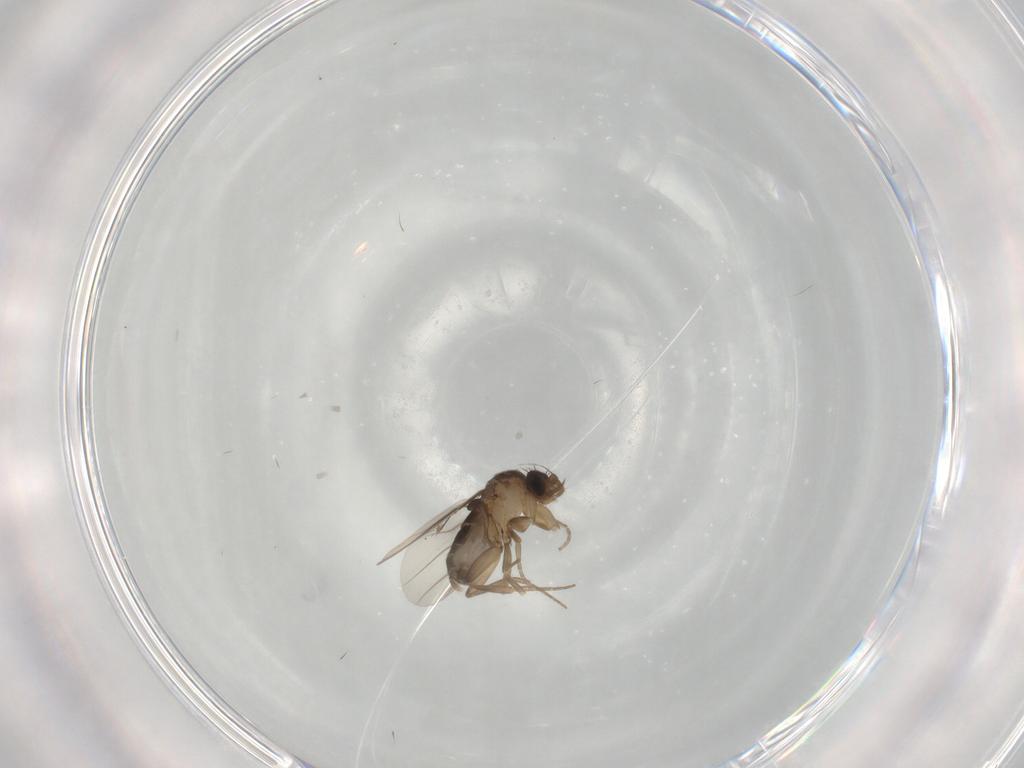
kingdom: Animalia
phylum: Arthropoda
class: Insecta
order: Diptera
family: Phoridae
